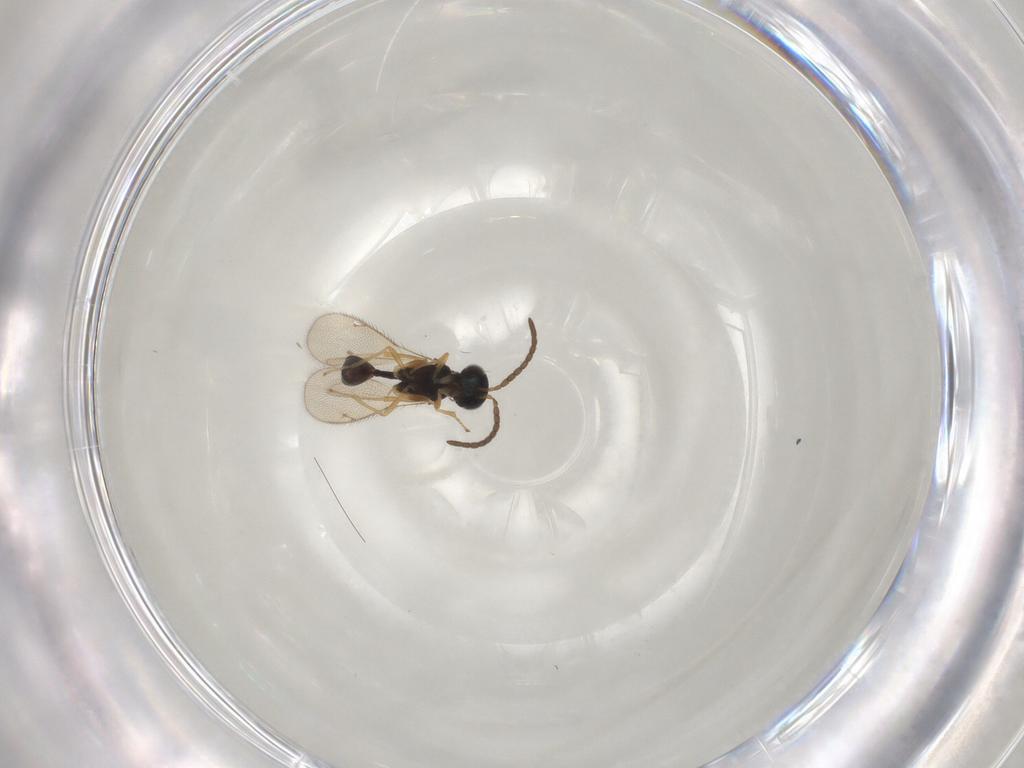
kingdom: Animalia
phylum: Arthropoda
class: Insecta
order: Hymenoptera
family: Diparidae
